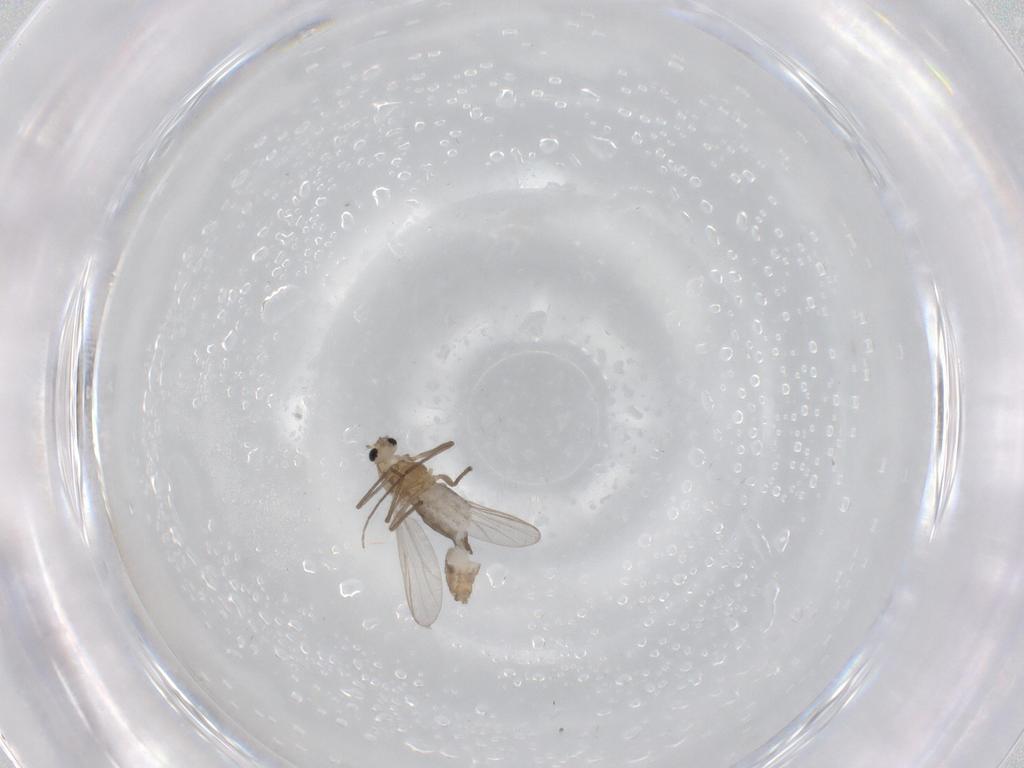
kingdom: Animalia
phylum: Arthropoda
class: Insecta
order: Diptera
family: Chironomidae
